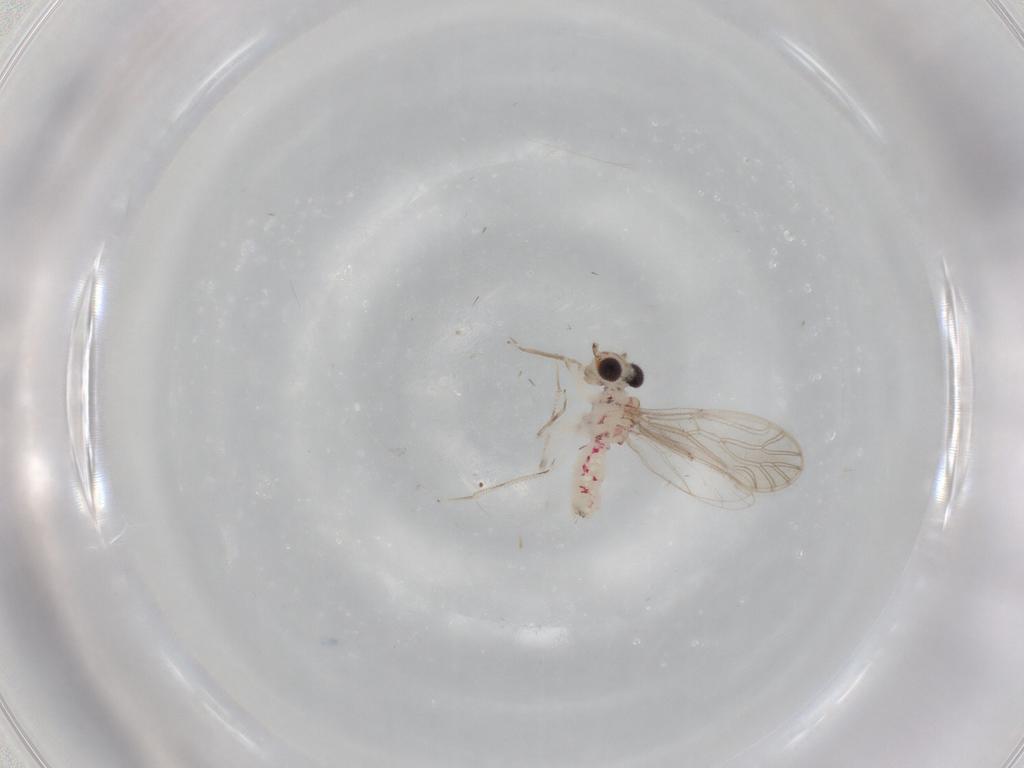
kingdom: Animalia
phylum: Arthropoda
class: Insecta
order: Psocodea
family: Caeciliusidae
